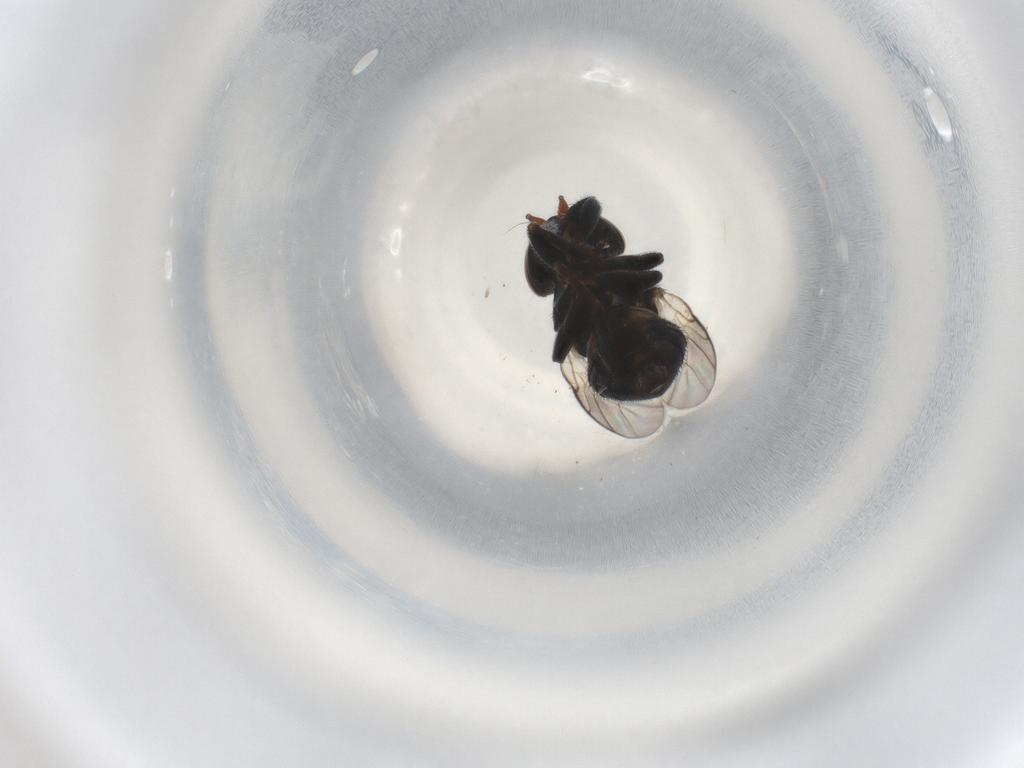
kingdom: Animalia
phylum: Arthropoda
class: Insecta
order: Diptera
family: Chloropidae
